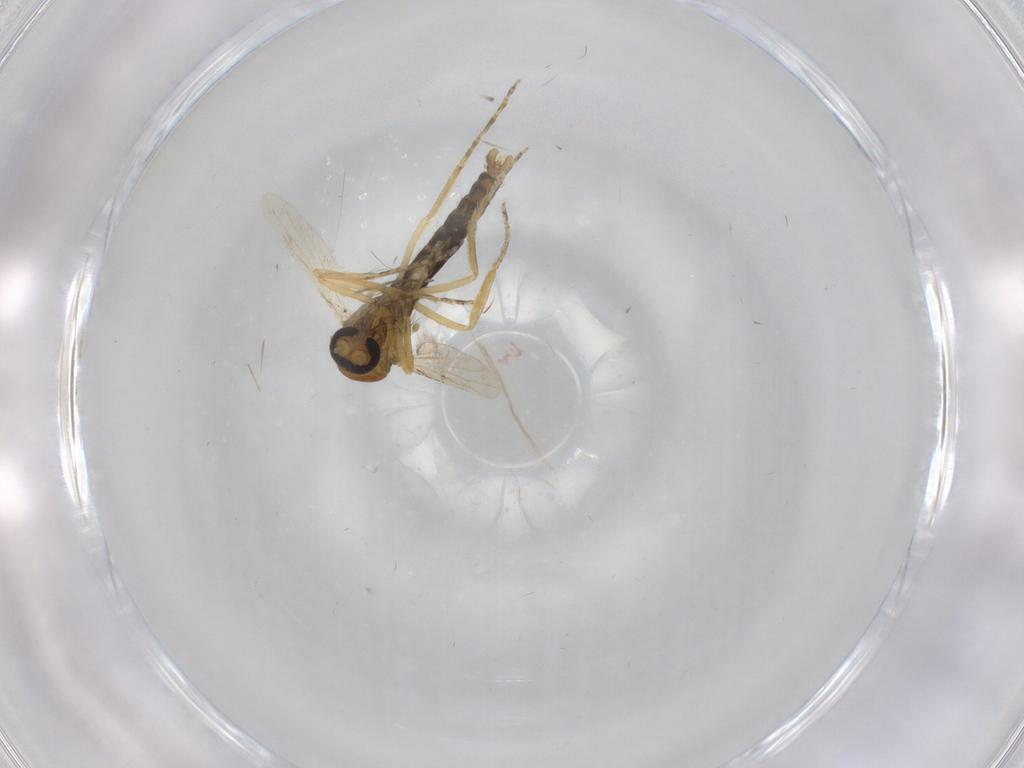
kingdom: Animalia
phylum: Arthropoda
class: Insecta
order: Diptera
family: Ceratopogonidae
